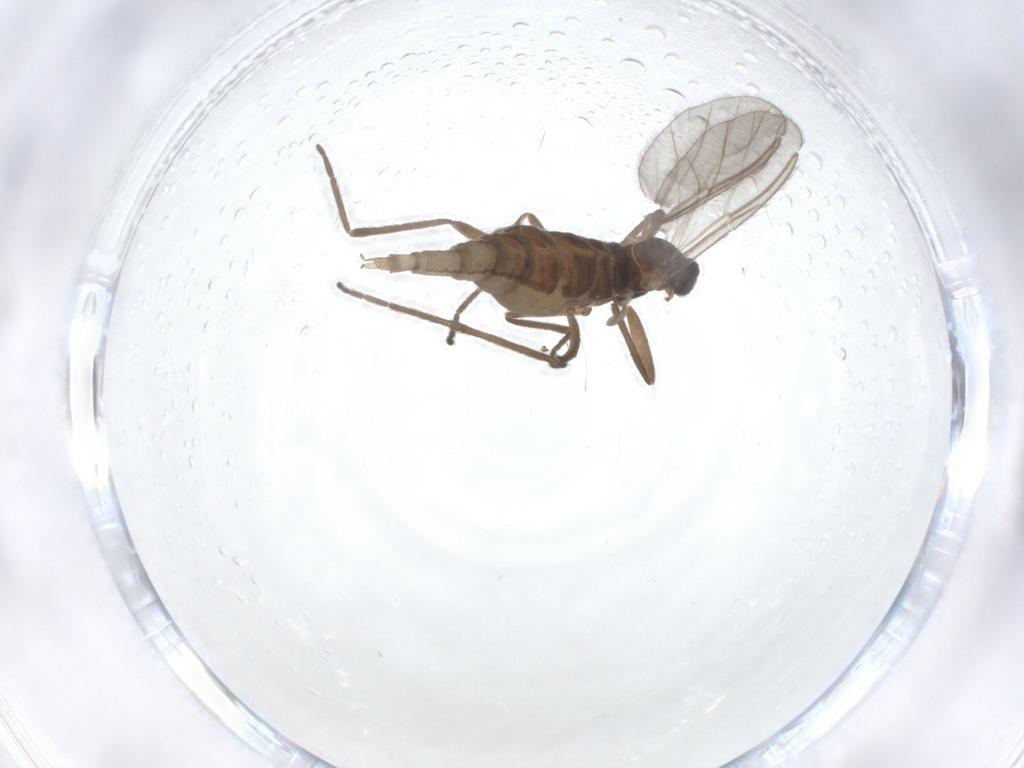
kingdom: Animalia
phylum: Arthropoda
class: Insecta
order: Diptera
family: Cecidomyiidae
